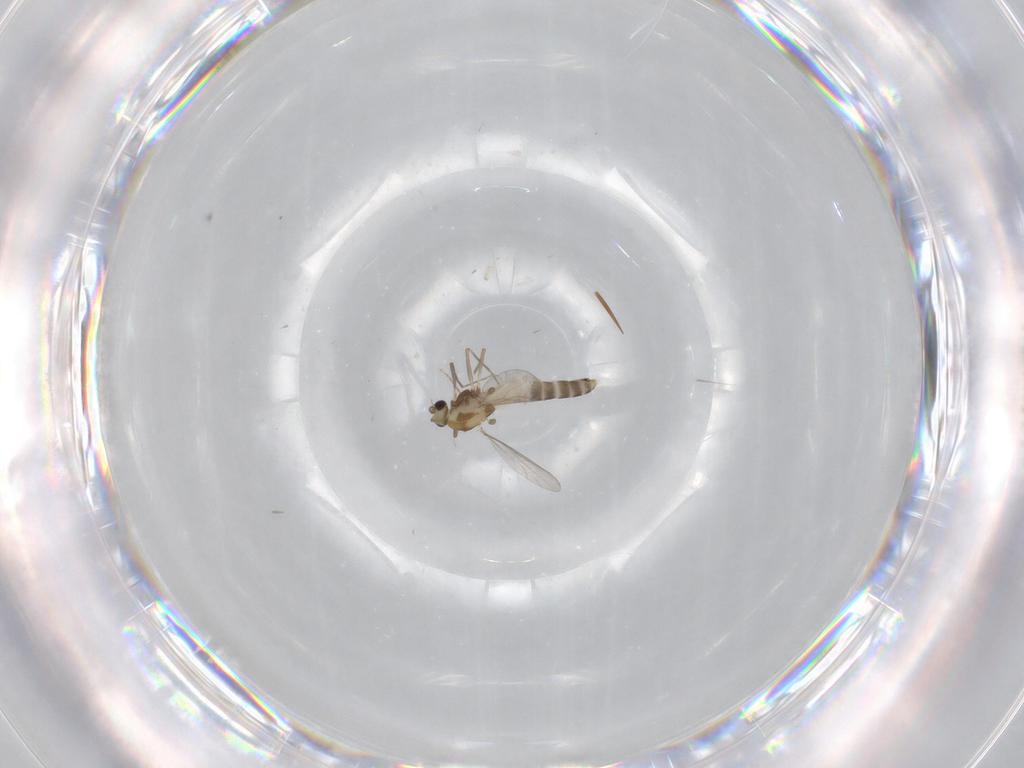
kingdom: Animalia
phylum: Arthropoda
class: Insecta
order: Diptera
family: Chironomidae
